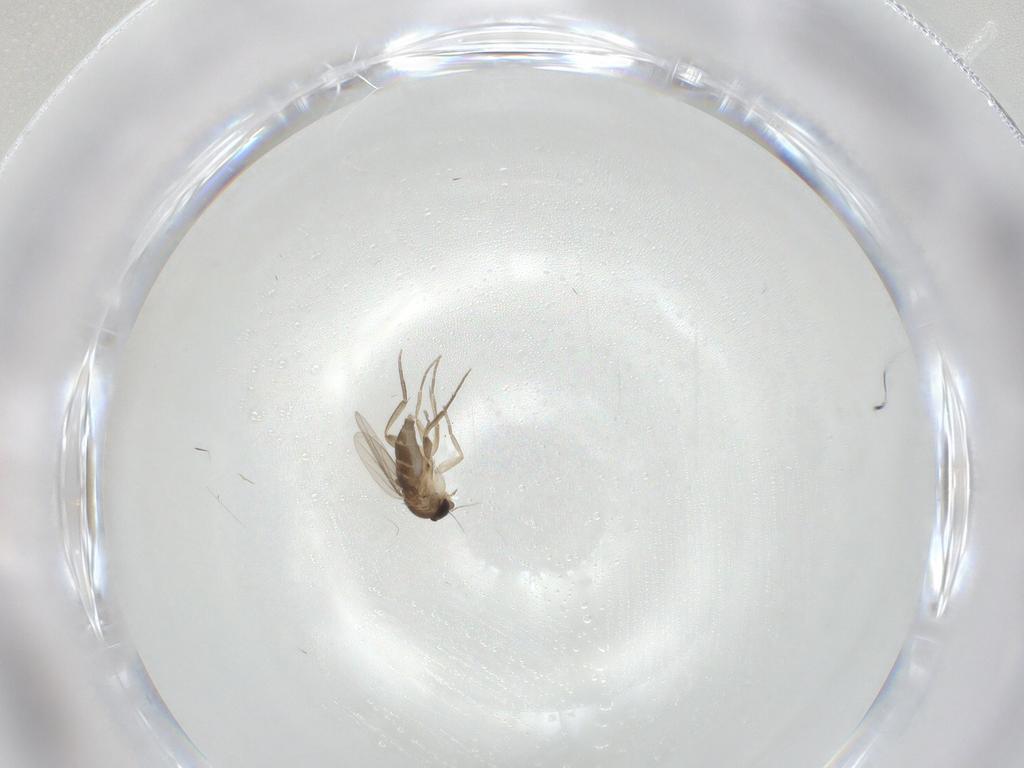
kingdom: Animalia
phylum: Arthropoda
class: Insecta
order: Diptera
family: Phoridae
